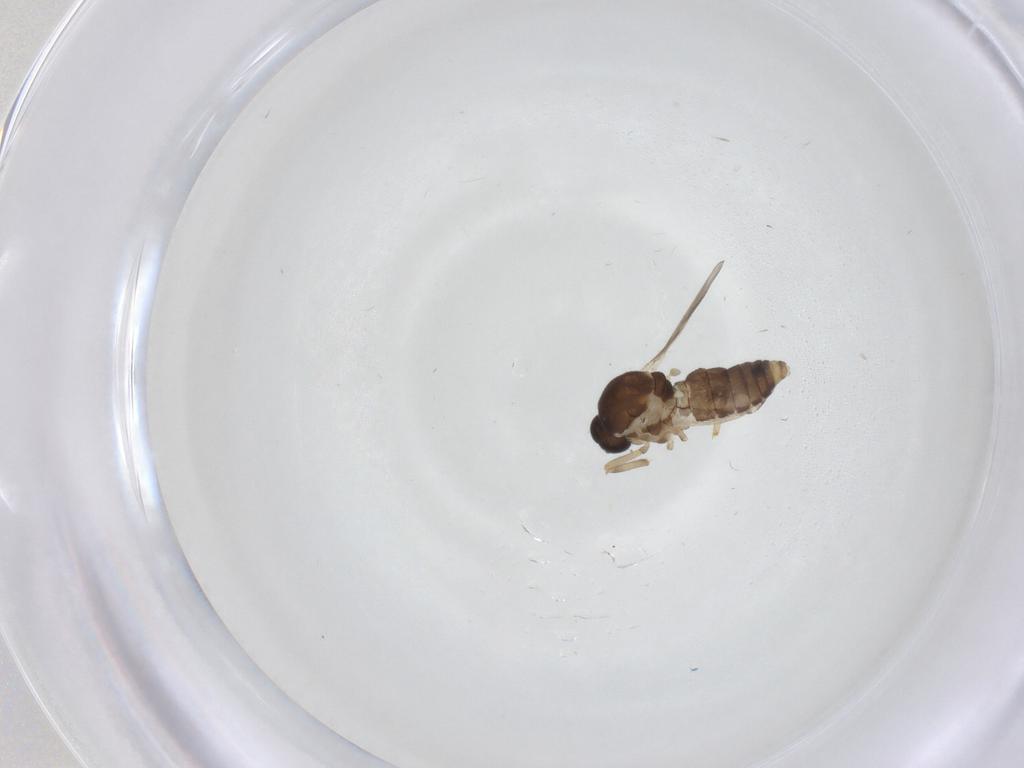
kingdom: Animalia
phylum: Arthropoda
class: Insecta
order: Diptera
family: Ceratopogonidae
